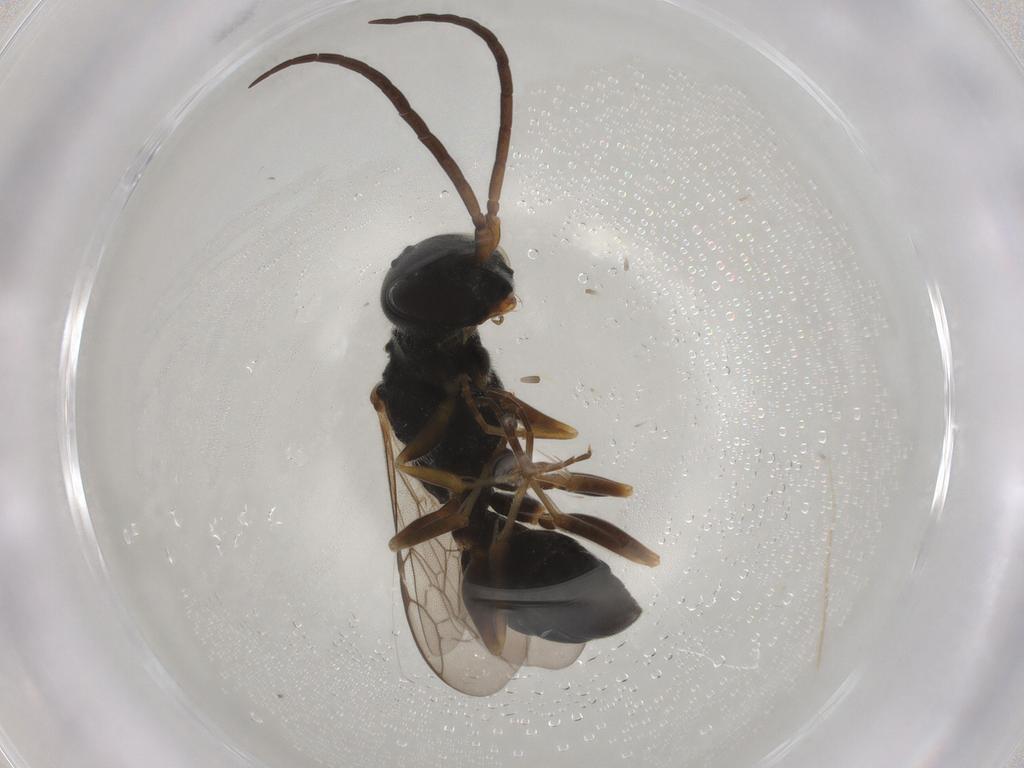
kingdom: Animalia
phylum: Arthropoda
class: Insecta
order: Hymenoptera
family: Ampulicidae
